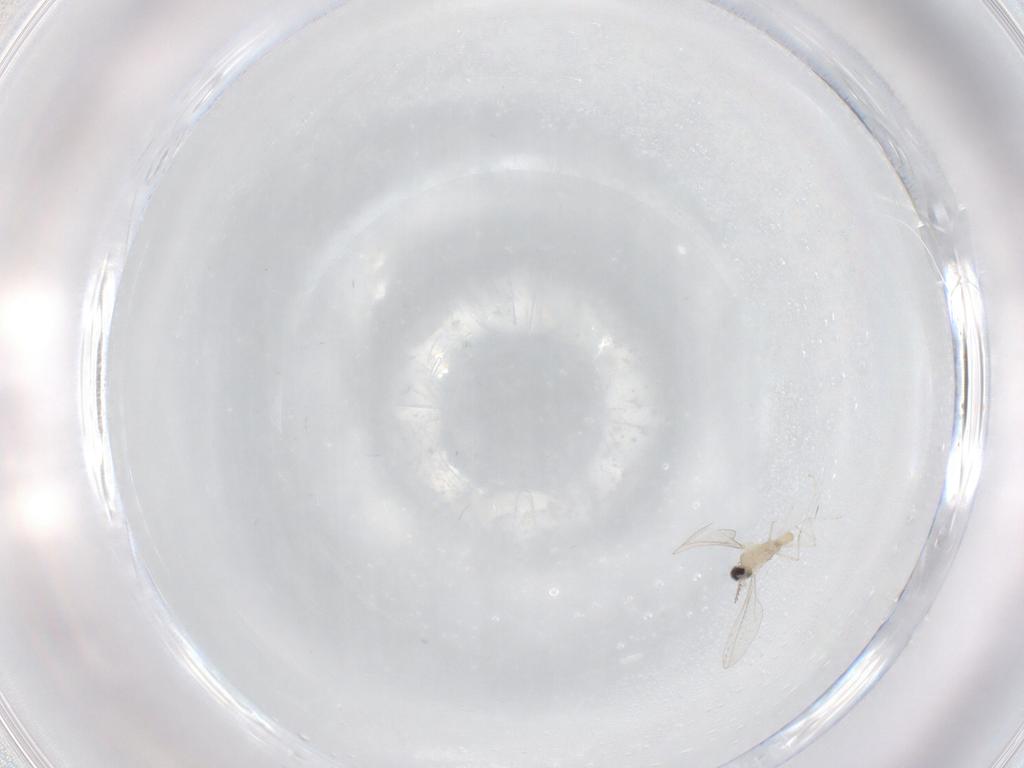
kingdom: Animalia
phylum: Arthropoda
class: Insecta
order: Diptera
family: Cecidomyiidae
